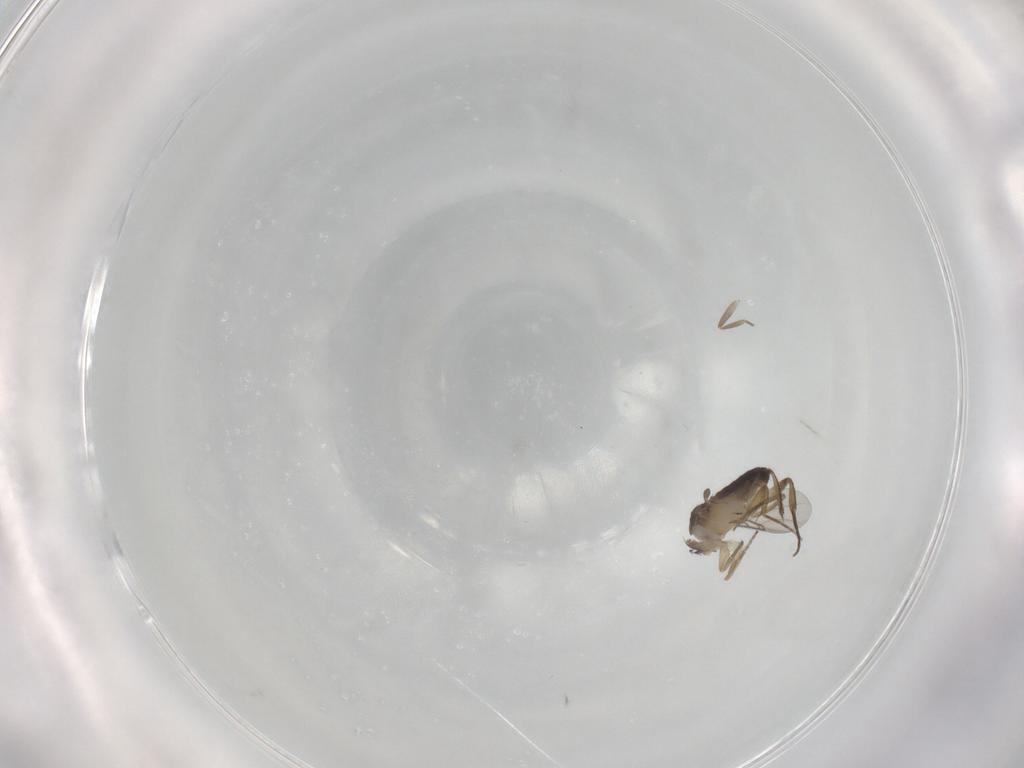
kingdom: Animalia
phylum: Arthropoda
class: Insecta
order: Diptera
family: Phoridae
